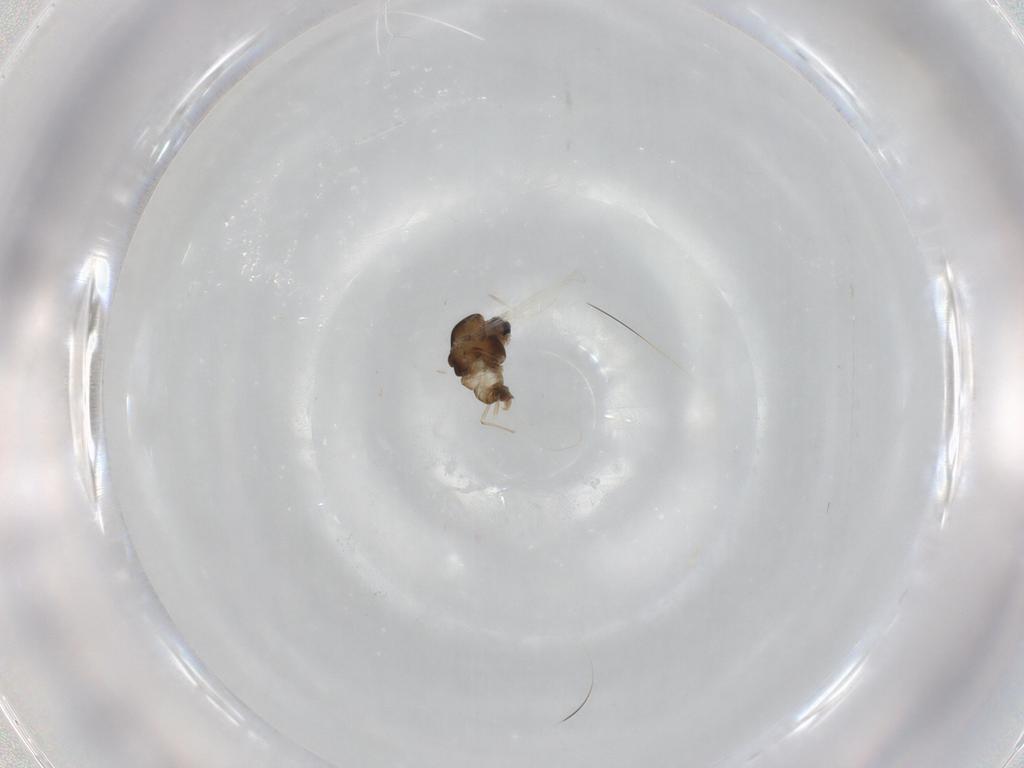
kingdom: Animalia
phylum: Arthropoda
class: Insecta
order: Diptera
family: Chironomidae
